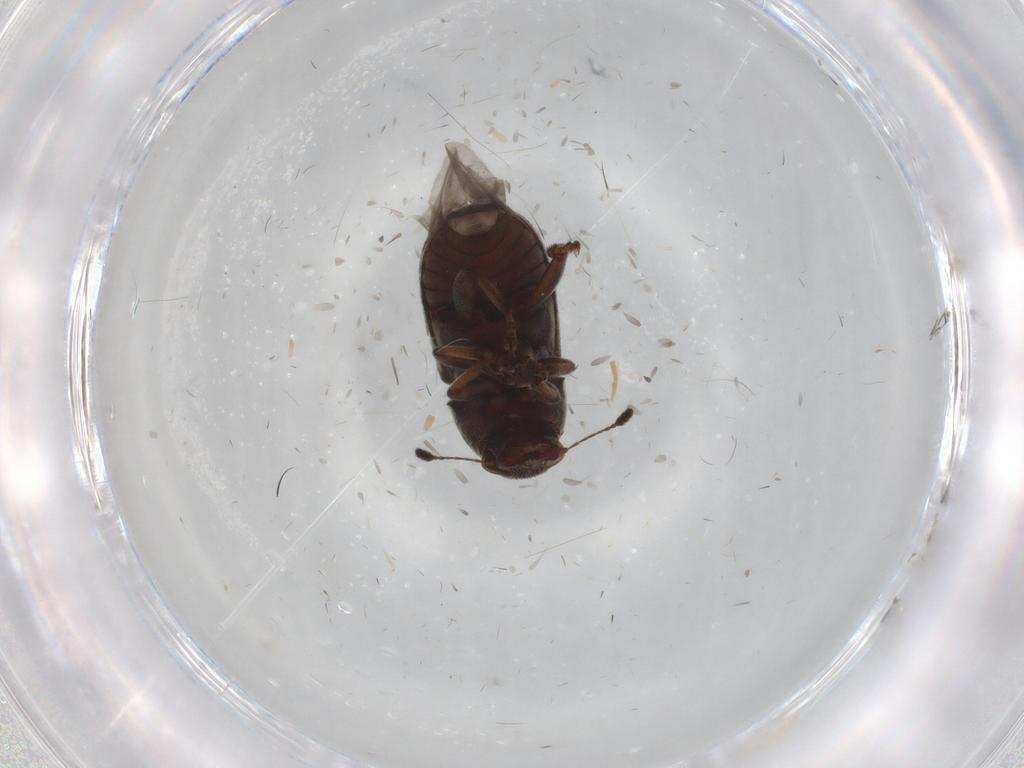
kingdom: Animalia
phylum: Arthropoda
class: Insecta
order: Coleoptera
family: Anthribidae
